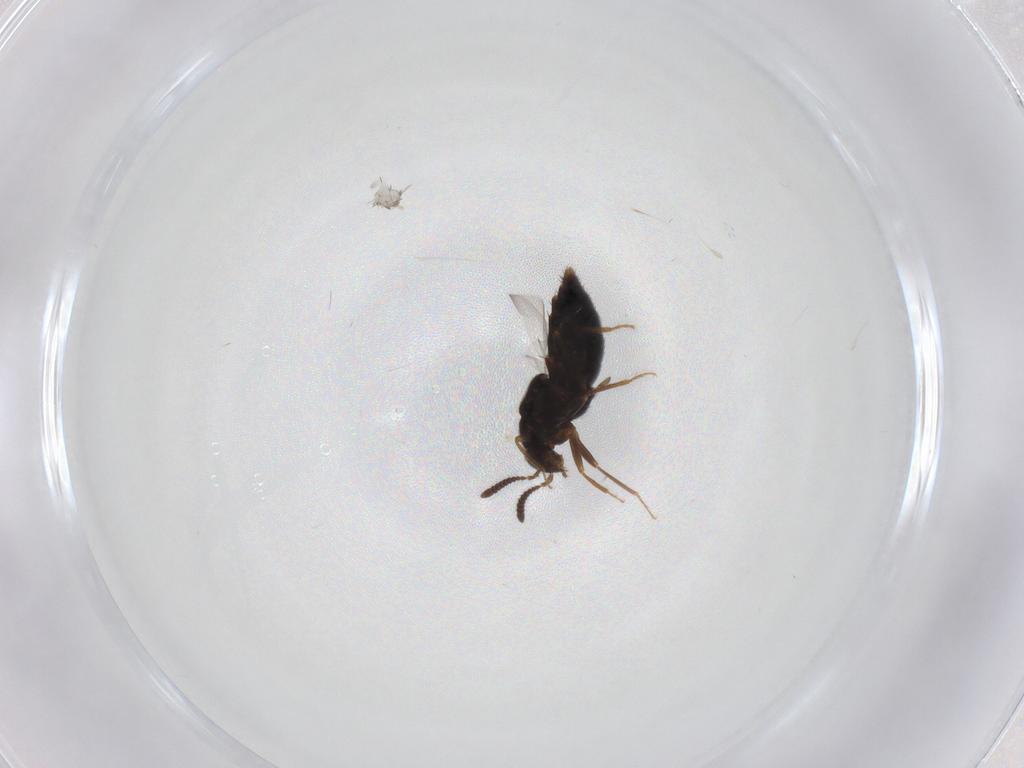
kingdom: Animalia
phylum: Arthropoda
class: Insecta
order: Coleoptera
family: Staphylinidae
